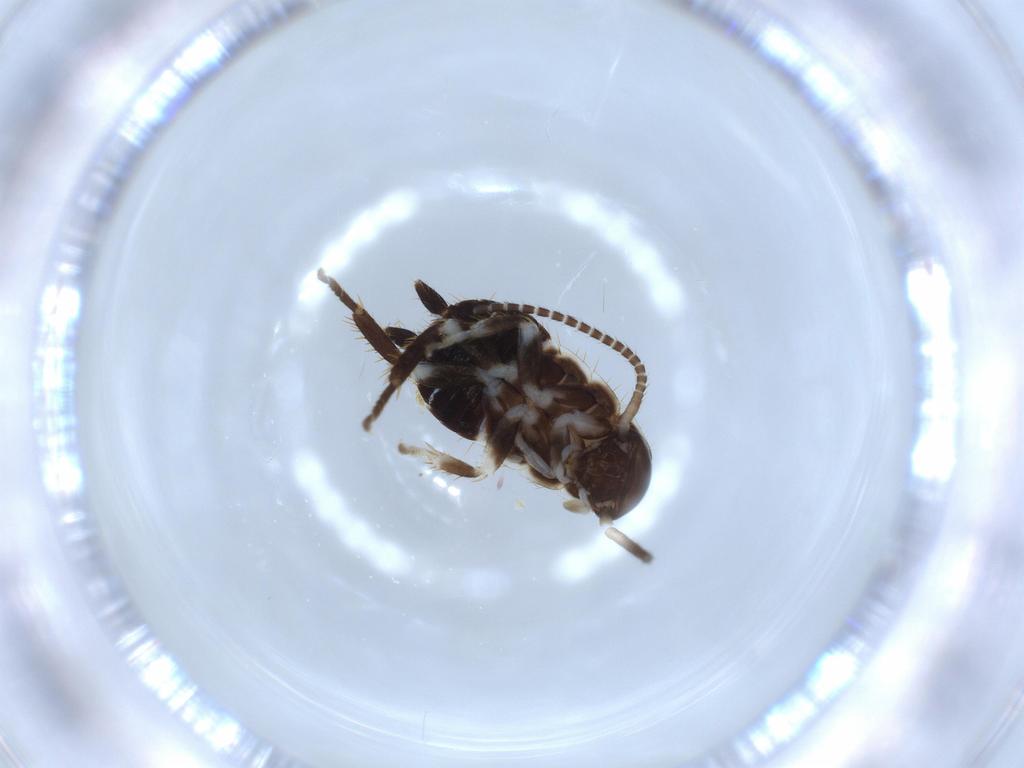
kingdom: Animalia
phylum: Arthropoda
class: Insecta
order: Blattodea
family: Ectobiidae
